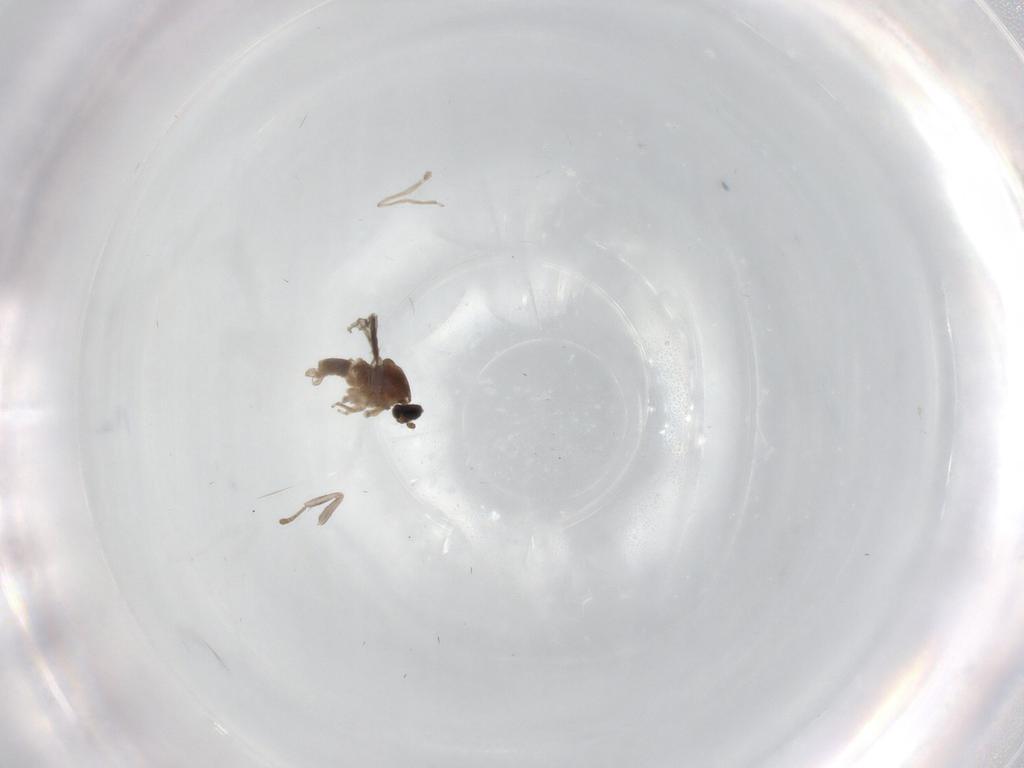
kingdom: Animalia
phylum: Arthropoda
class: Insecta
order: Diptera
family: Psychodidae
